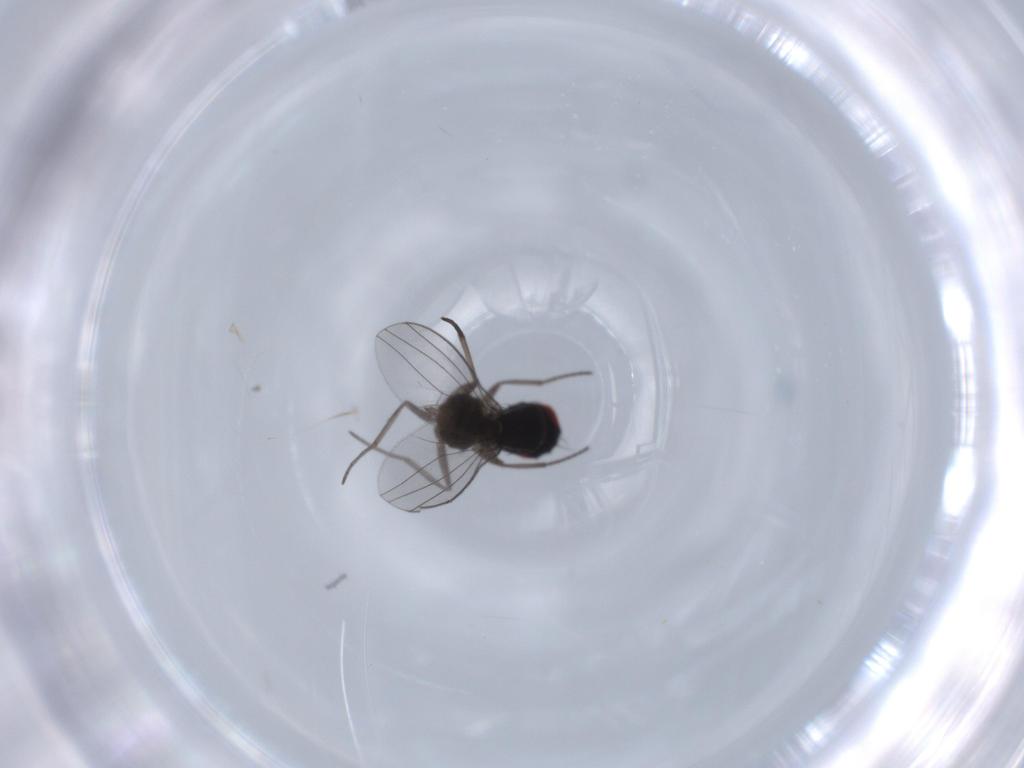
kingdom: Animalia
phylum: Arthropoda
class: Insecta
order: Diptera
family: Dolichopodidae
